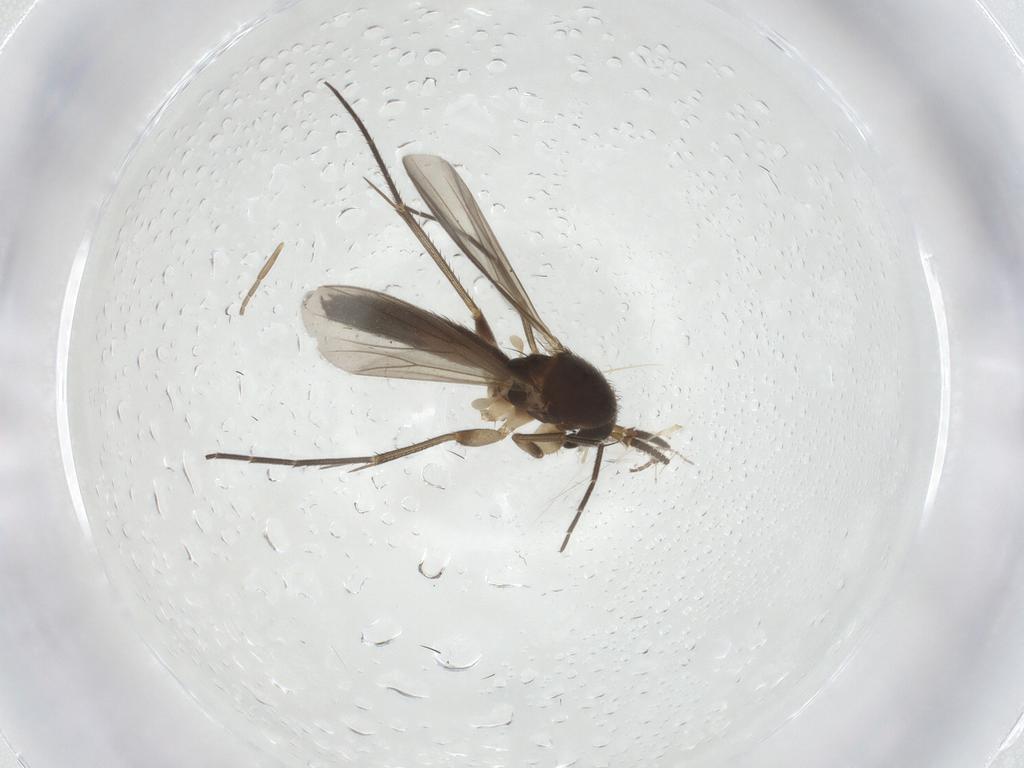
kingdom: Animalia
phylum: Arthropoda
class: Insecta
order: Diptera
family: Mycetophilidae
